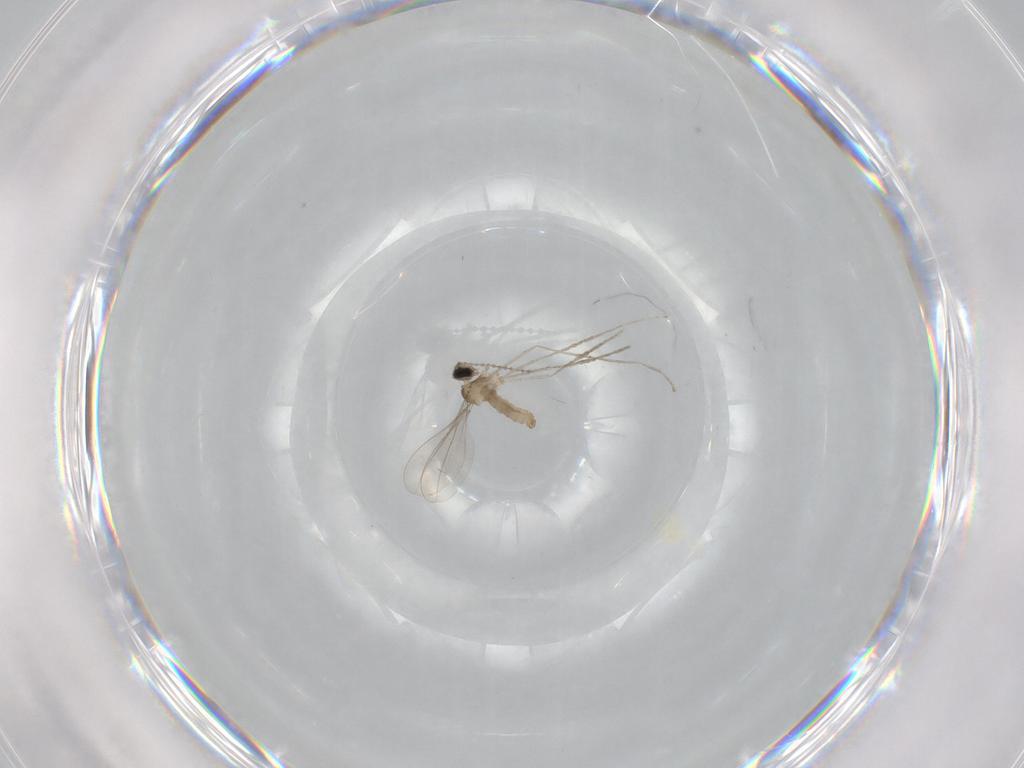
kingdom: Animalia
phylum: Arthropoda
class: Insecta
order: Diptera
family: Cecidomyiidae
